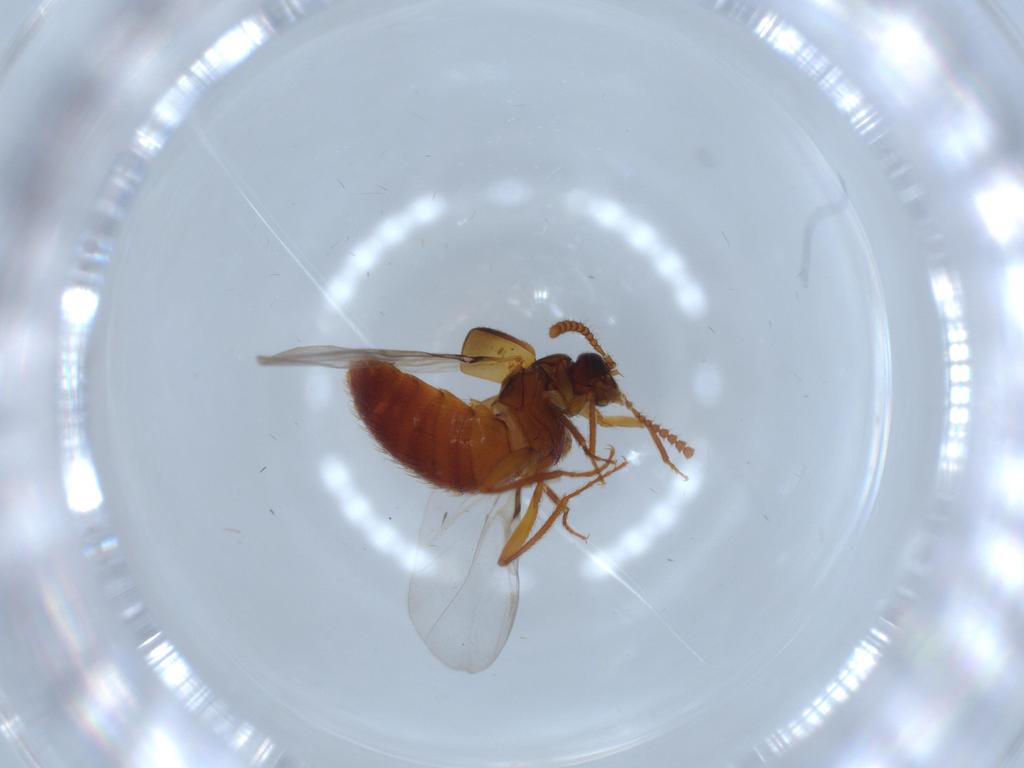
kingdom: Animalia
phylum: Arthropoda
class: Insecta
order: Coleoptera
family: Staphylinidae
